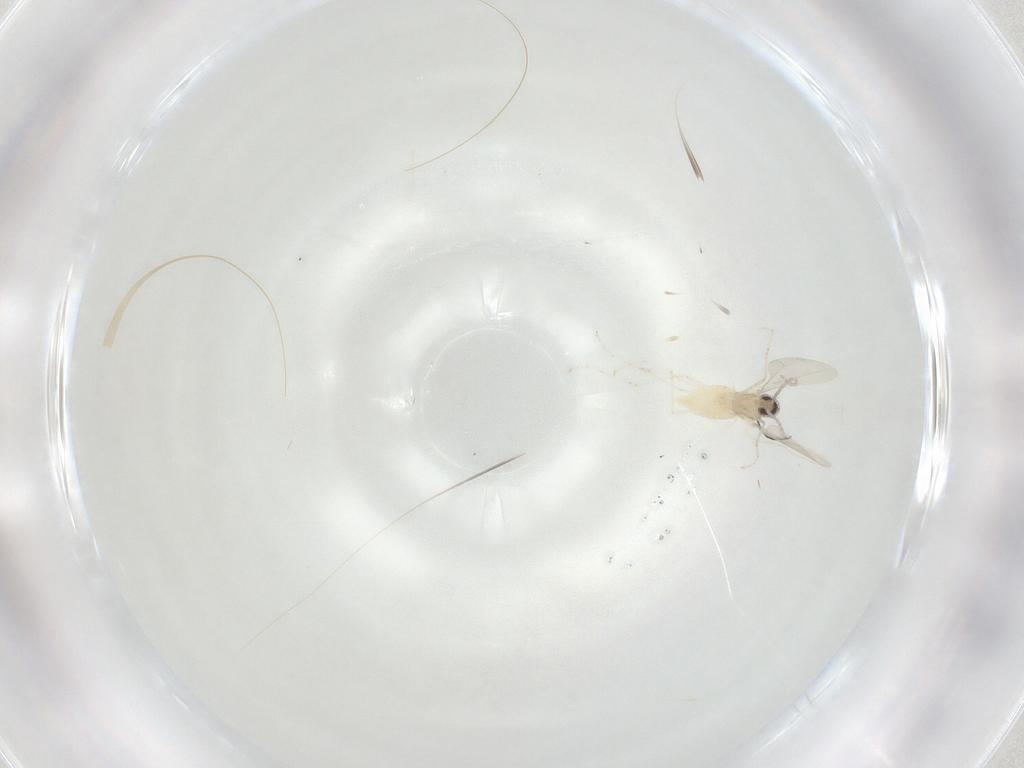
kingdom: Animalia
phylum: Arthropoda
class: Insecta
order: Diptera
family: Cecidomyiidae
